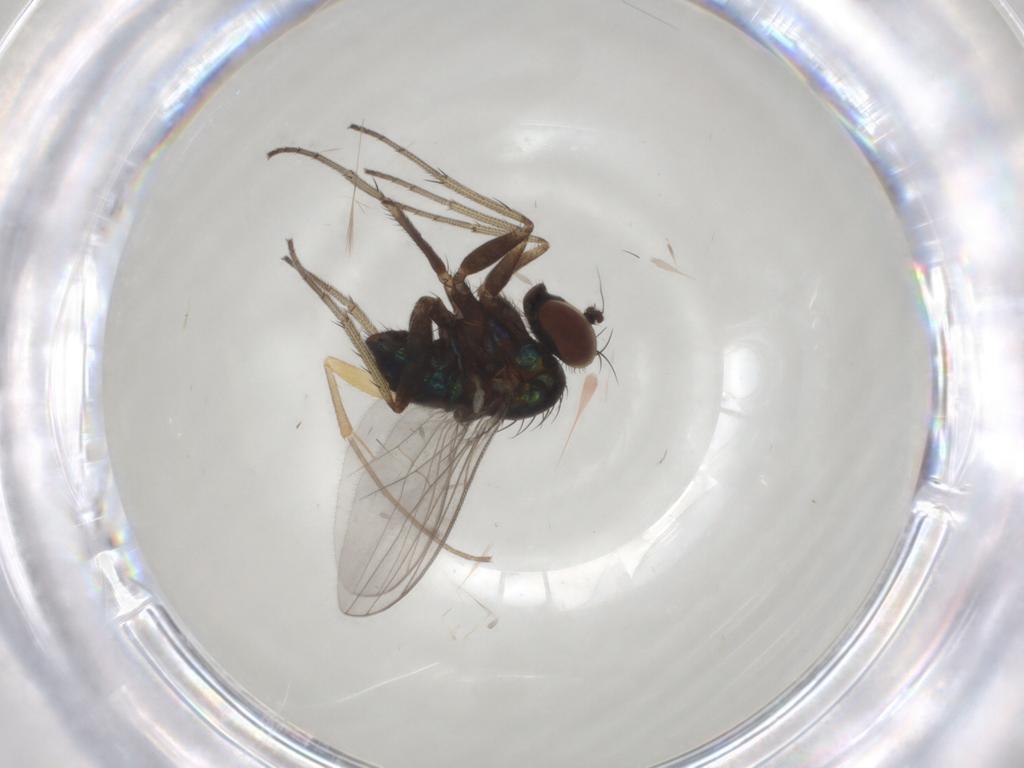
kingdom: Animalia
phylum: Arthropoda
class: Insecta
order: Diptera
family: Dolichopodidae
